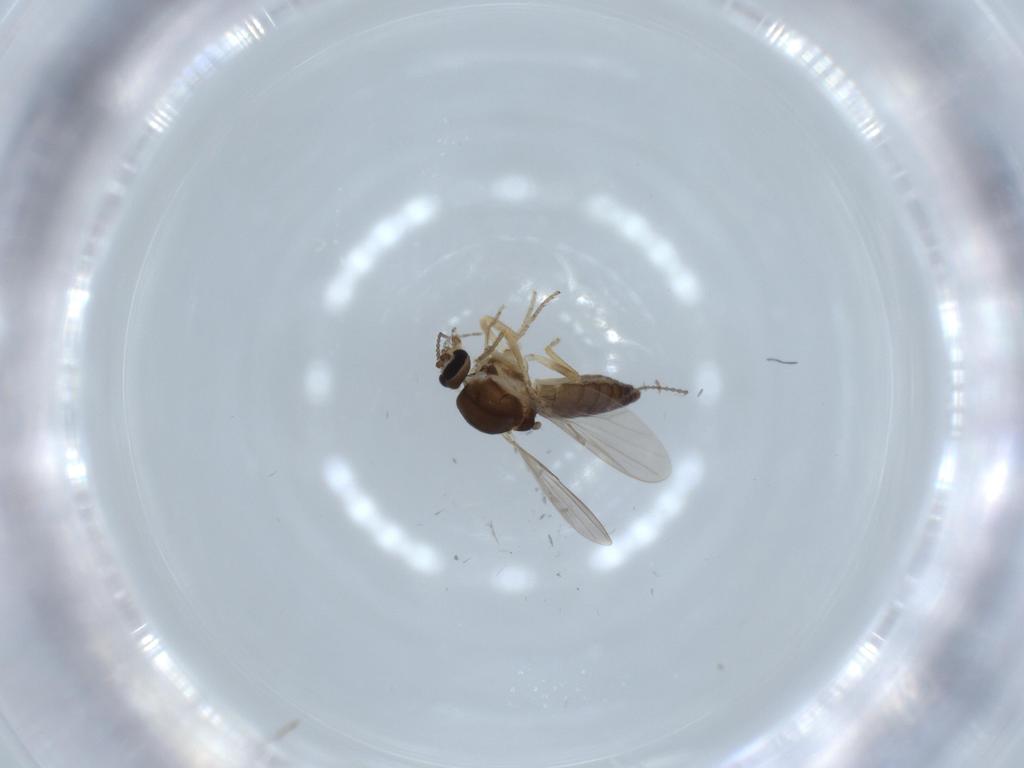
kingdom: Animalia
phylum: Arthropoda
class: Insecta
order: Diptera
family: Ceratopogonidae
